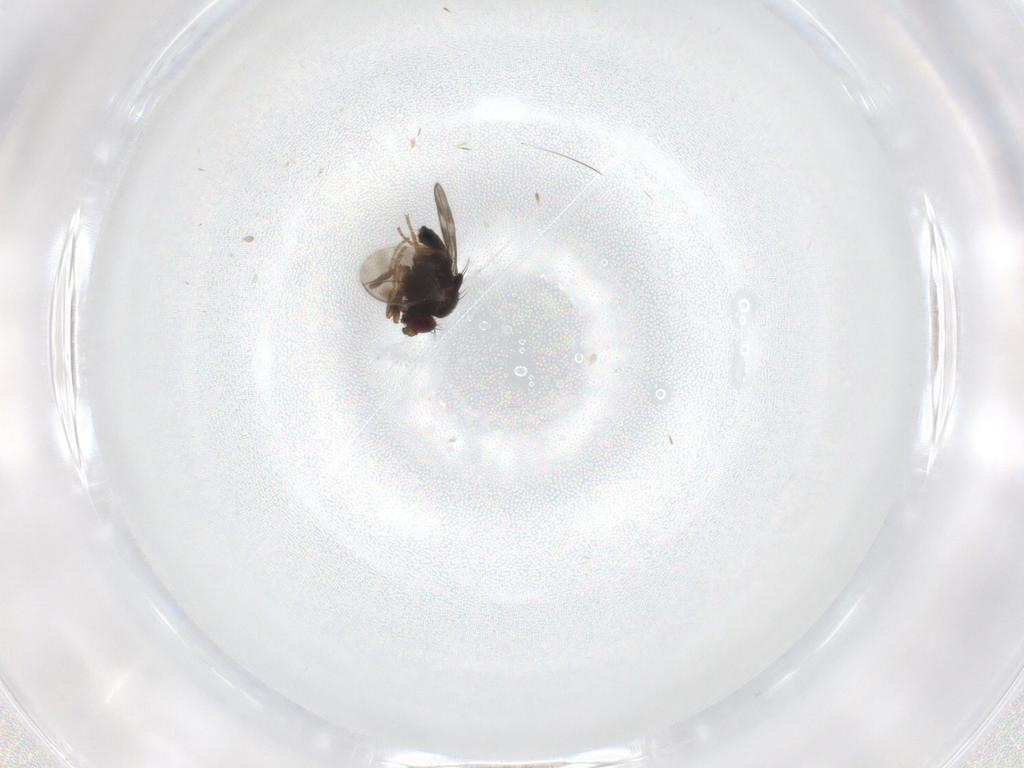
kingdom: Animalia
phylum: Arthropoda
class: Insecta
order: Diptera
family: Sphaeroceridae
